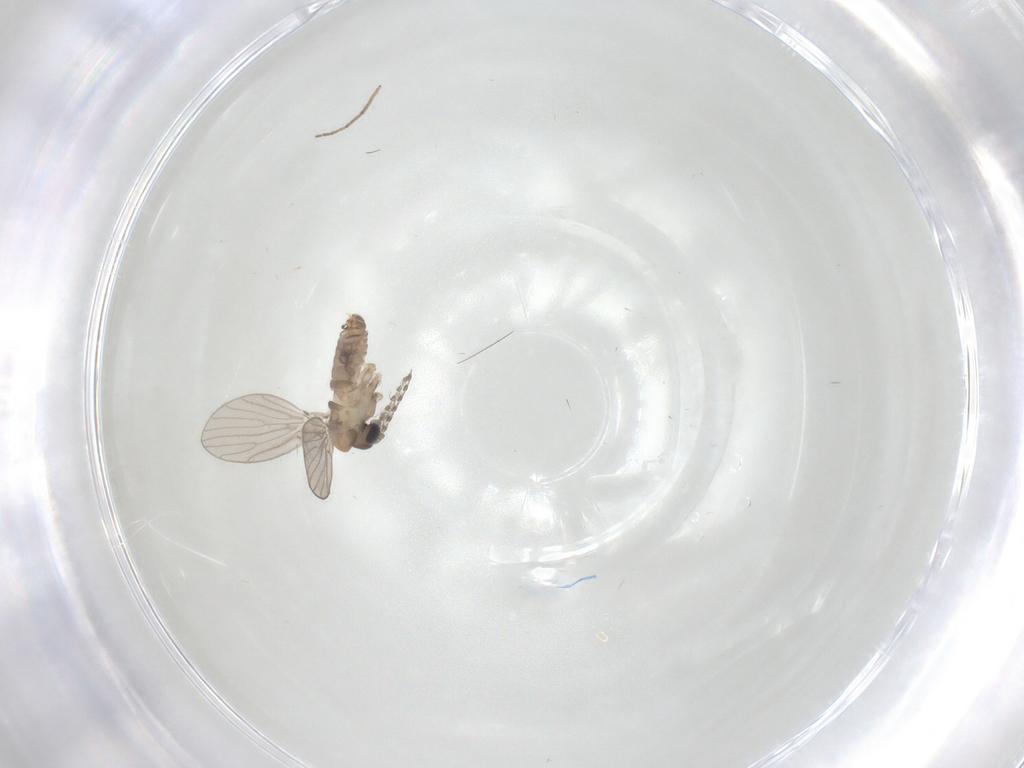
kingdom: Animalia
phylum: Arthropoda
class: Insecta
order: Diptera
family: Chironomidae
